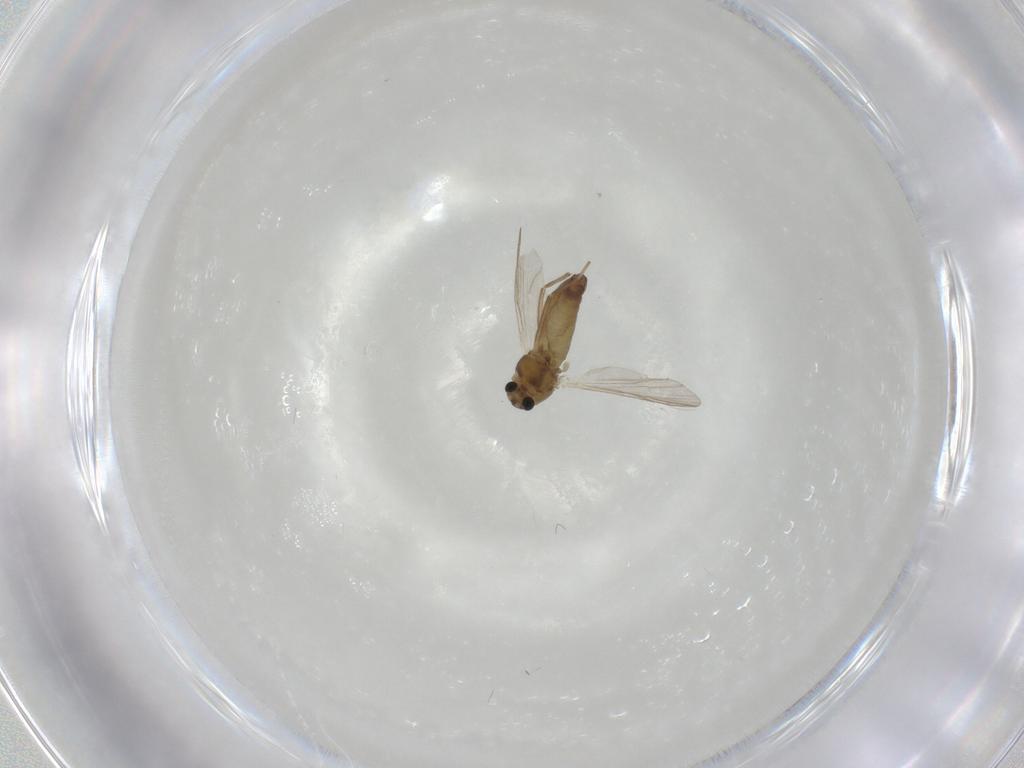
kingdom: Animalia
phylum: Arthropoda
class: Insecta
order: Diptera
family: Chironomidae
